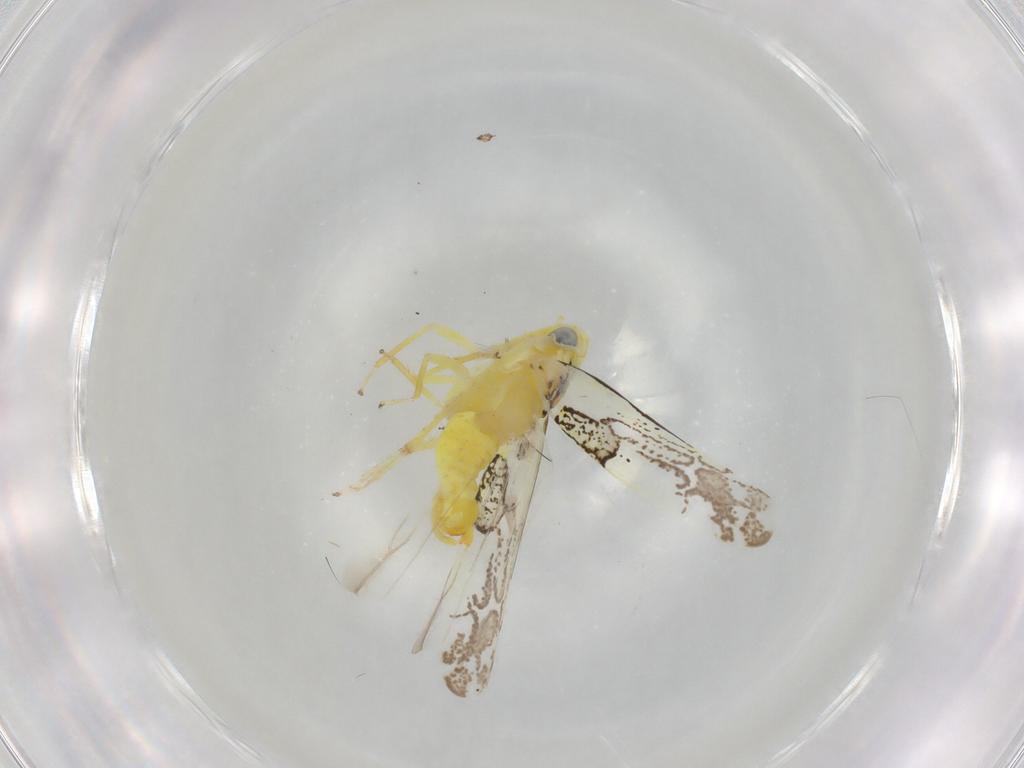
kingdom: Animalia
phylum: Arthropoda
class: Insecta
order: Hemiptera
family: Cicadellidae
